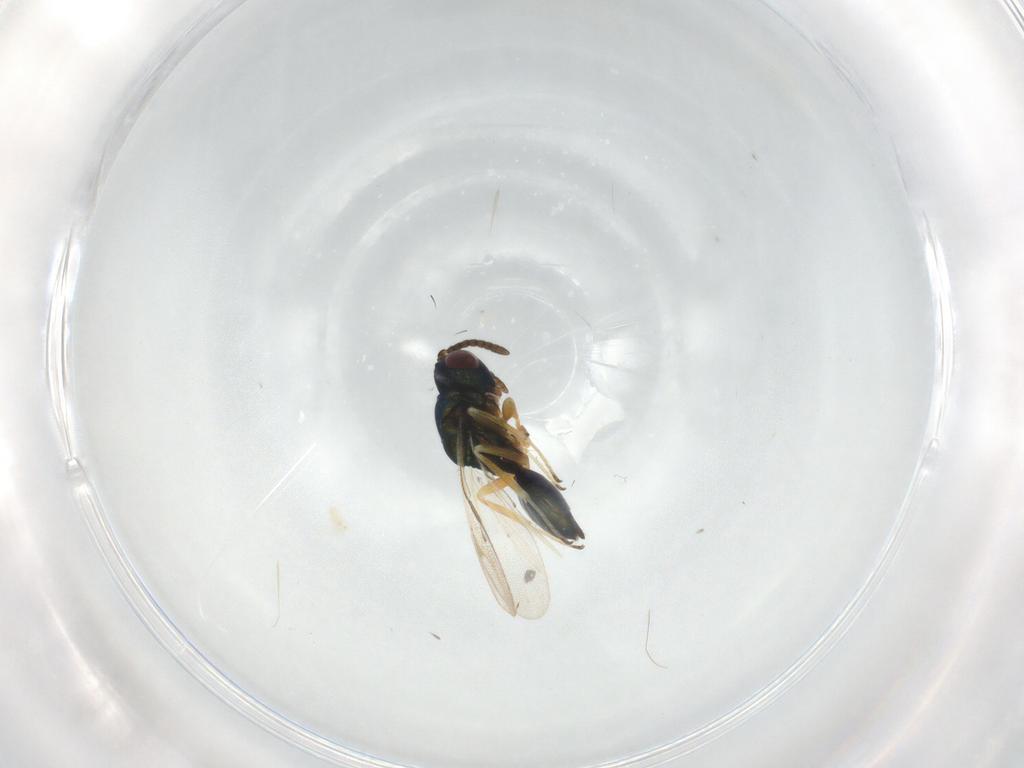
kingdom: Animalia
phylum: Arthropoda
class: Insecta
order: Hymenoptera
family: Pteromalidae
